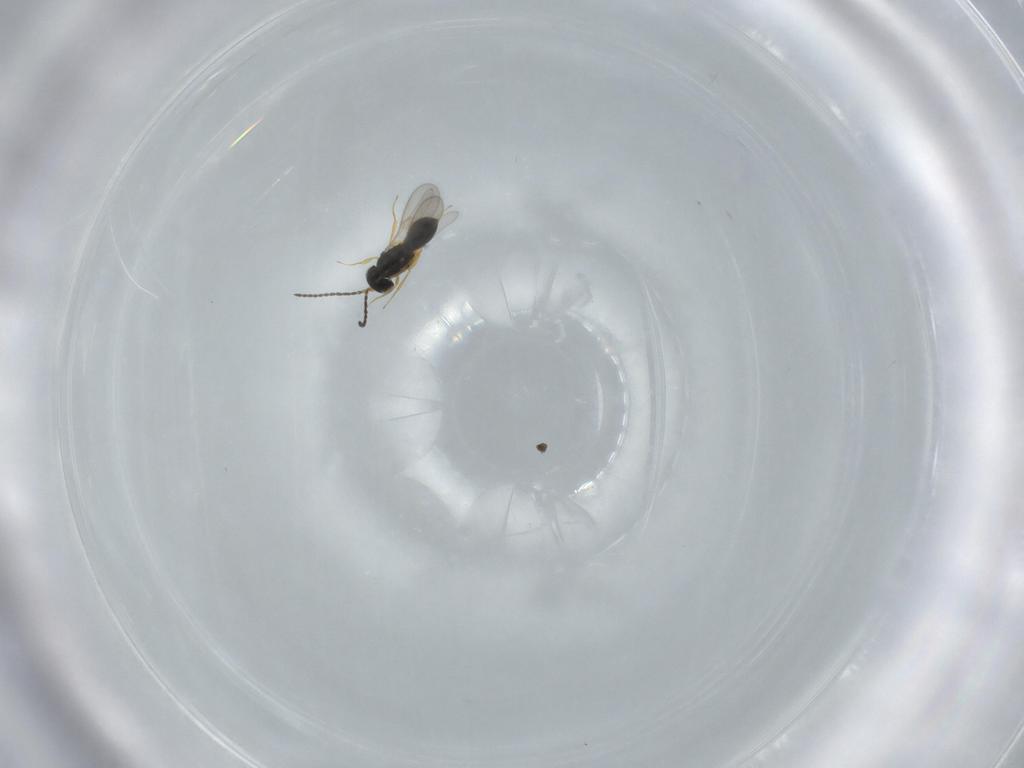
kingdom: Animalia
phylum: Arthropoda
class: Insecta
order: Hymenoptera
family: Scelionidae
